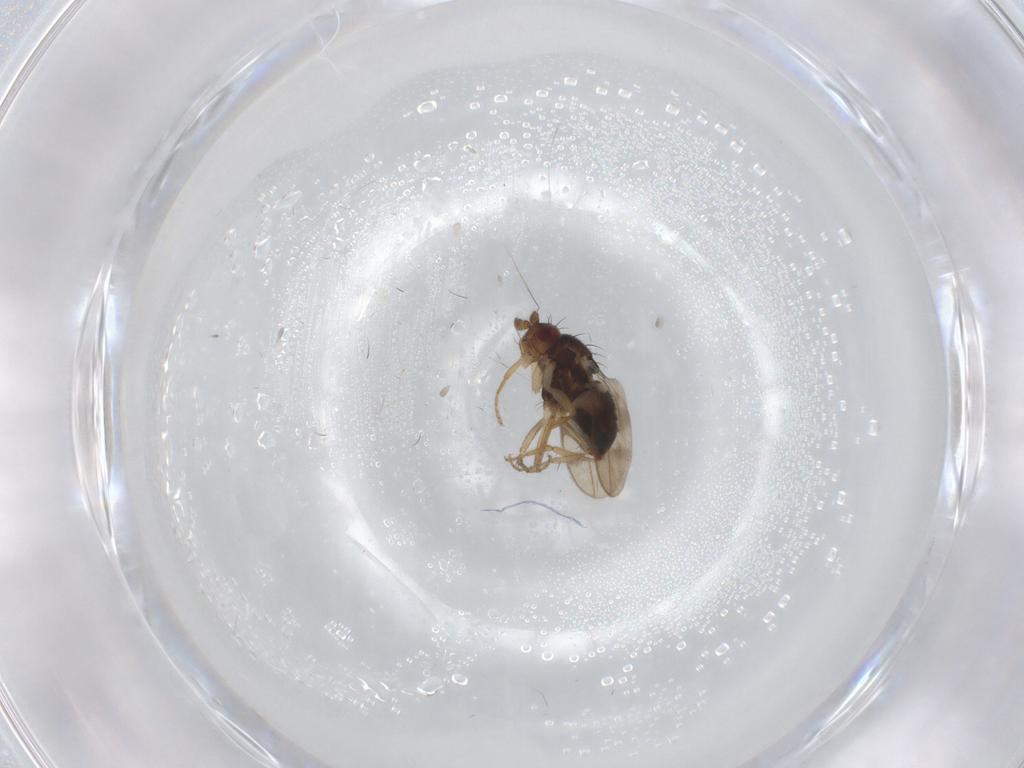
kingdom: Animalia
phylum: Arthropoda
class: Insecta
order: Diptera
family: Sphaeroceridae
